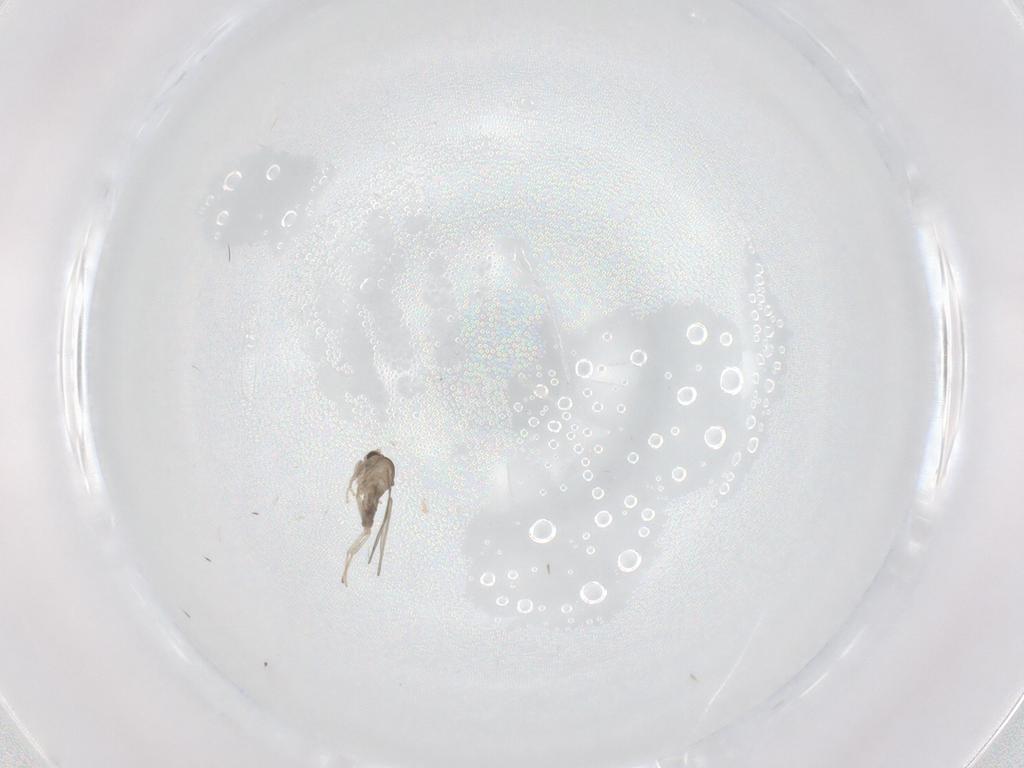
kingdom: Animalia
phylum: Arthropoda
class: Insecta
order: Diptera
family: Cecidomyiidae
